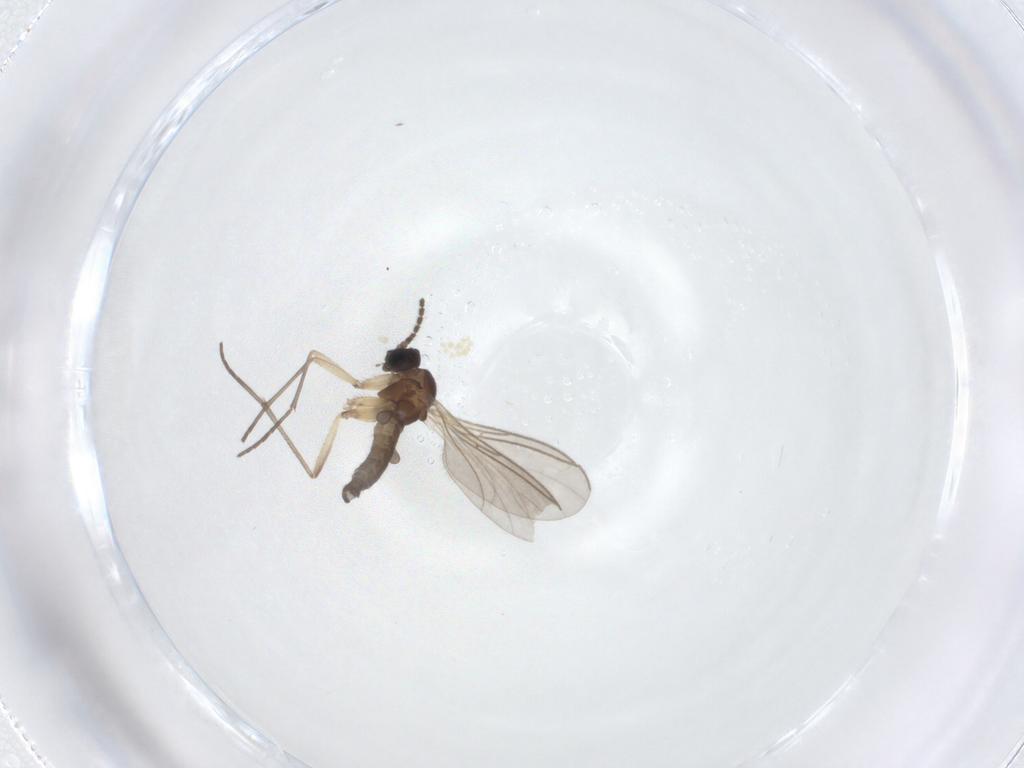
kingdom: Animalia
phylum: Arthropoda
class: Insecta
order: Diptera
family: Sciaridae
